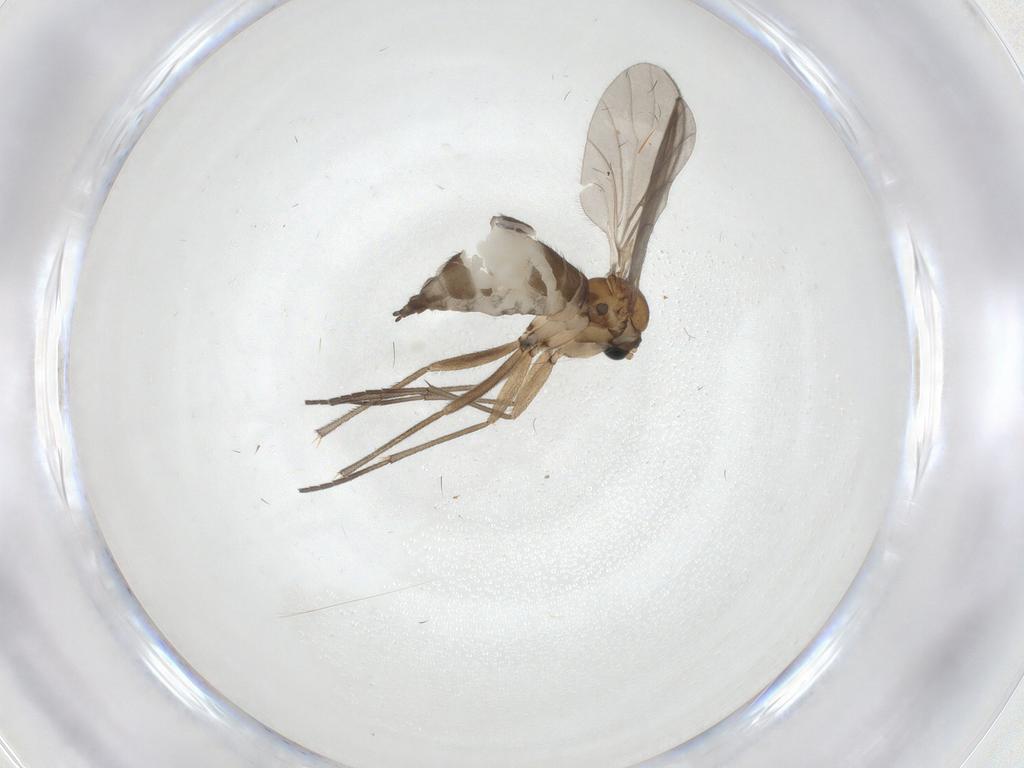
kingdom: Animalia
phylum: Arthropoda
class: Insecta
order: Diptera
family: Sciaridae
